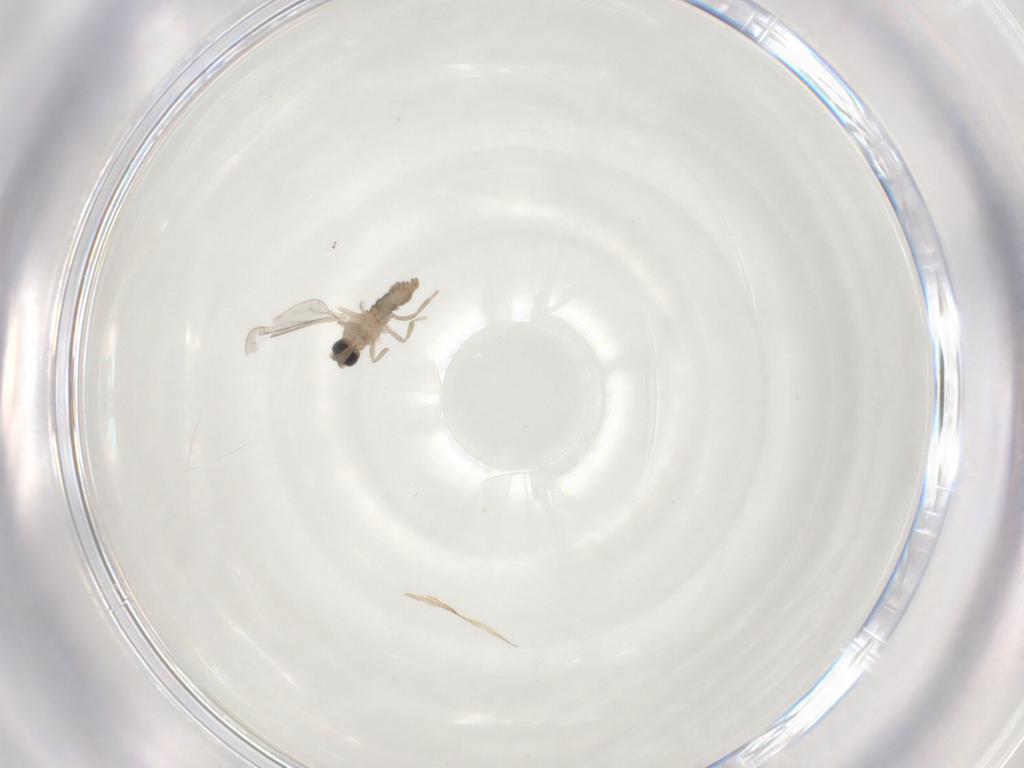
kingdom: Animalia
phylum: Arthropoda
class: Insecta
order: Diptera
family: Cecidomyiidae
